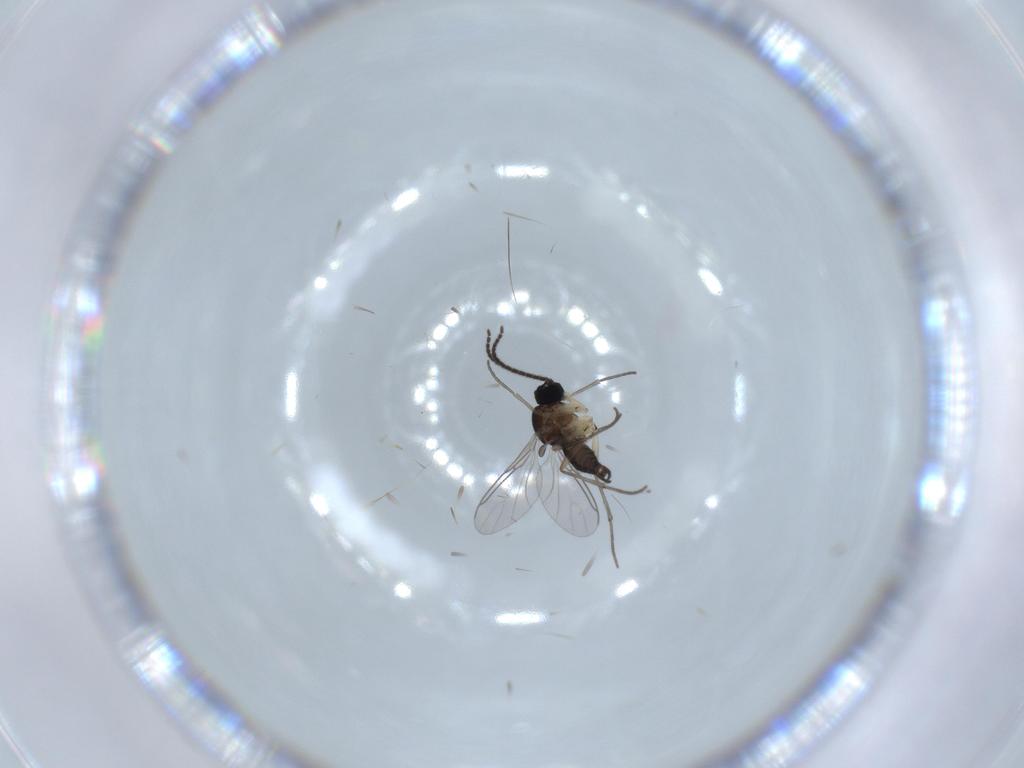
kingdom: Animalia
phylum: Arthropoda
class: Insecta
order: Diptera
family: Sciaridae
